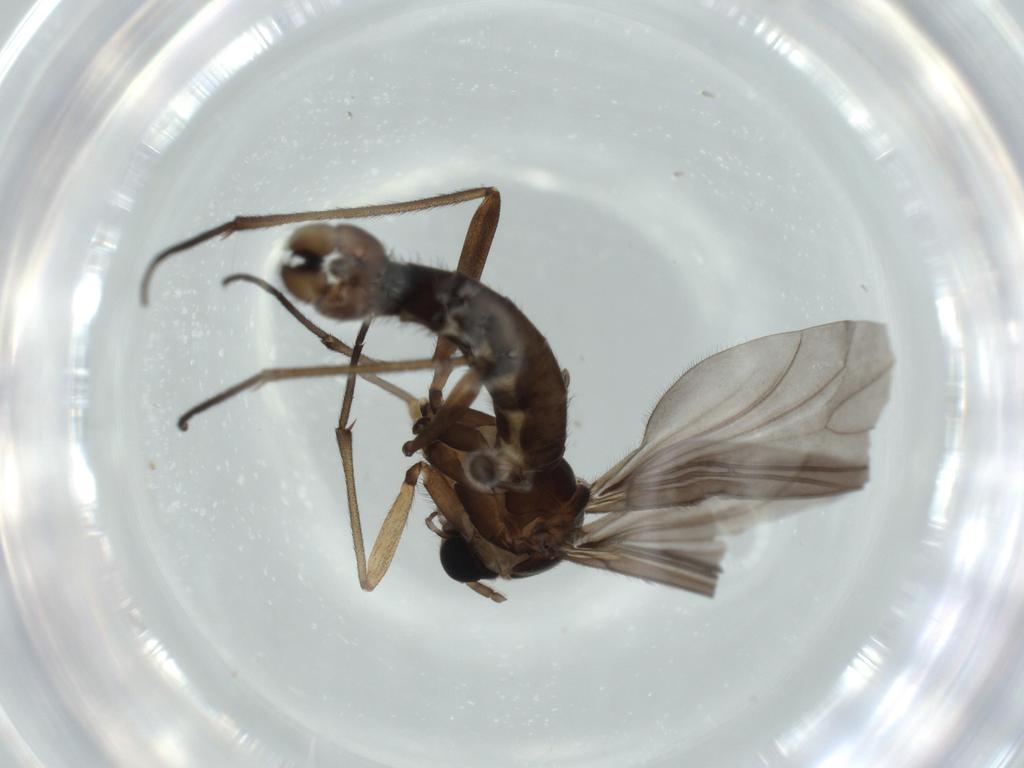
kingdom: Animalia
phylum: Arthropoda
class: Insecta
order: Diptera
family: Sciaridae
